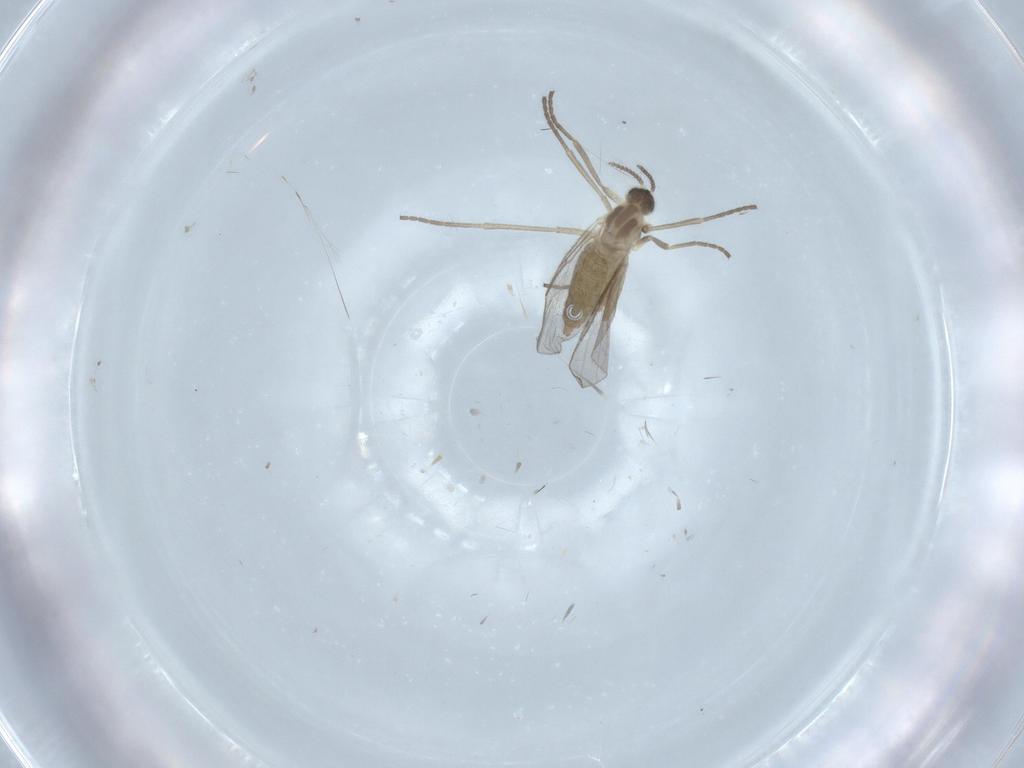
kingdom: Animalia
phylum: Arthropoda
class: Insecta
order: Diptera
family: Cecidomyiidae
